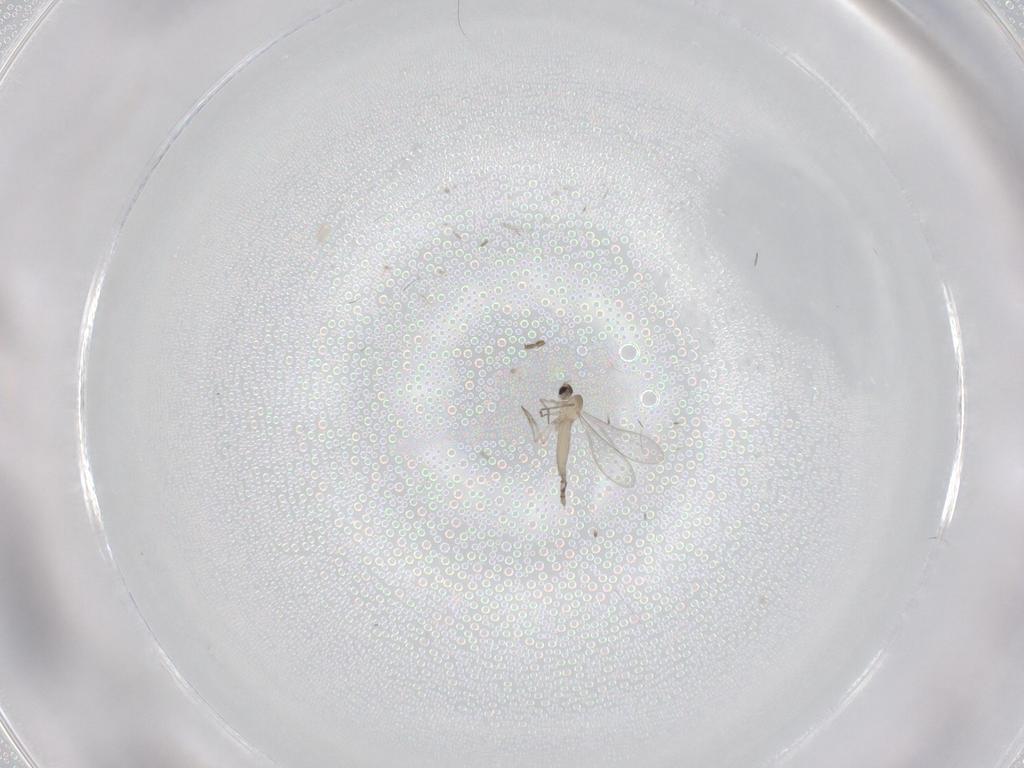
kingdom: Animalia
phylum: Arthropoda
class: Insecta
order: Diptera
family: Cecidomyiidae
